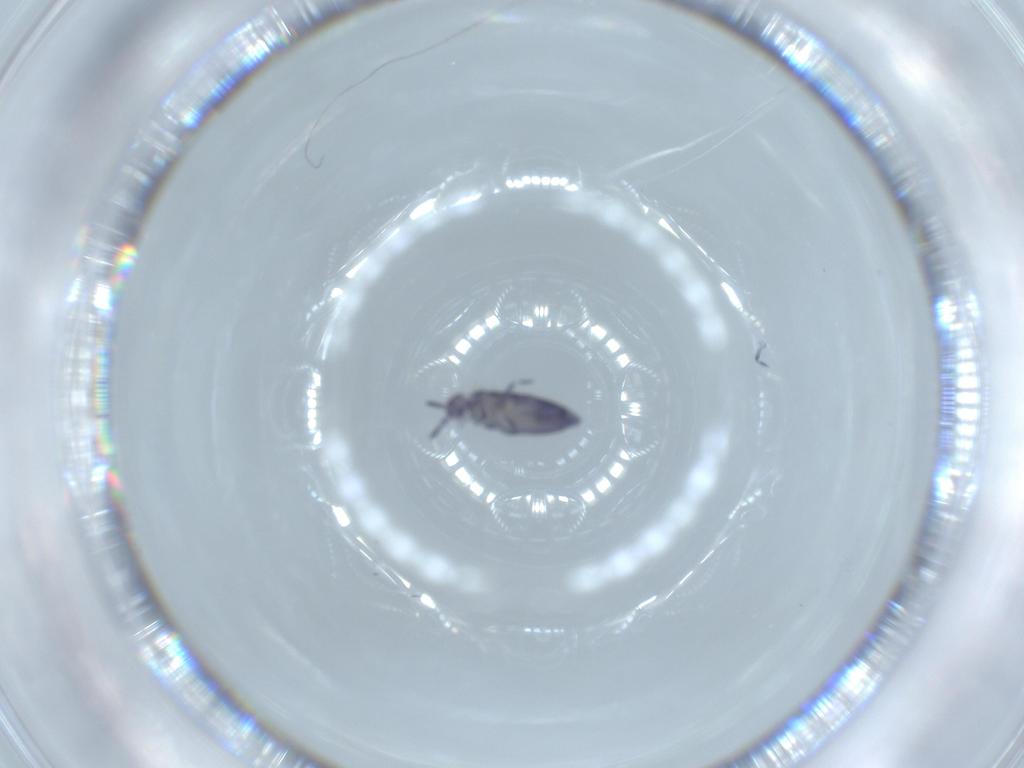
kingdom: Animalia
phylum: Arthropoda
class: Collembola
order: Entomobryomorpha
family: Entomobryidae
